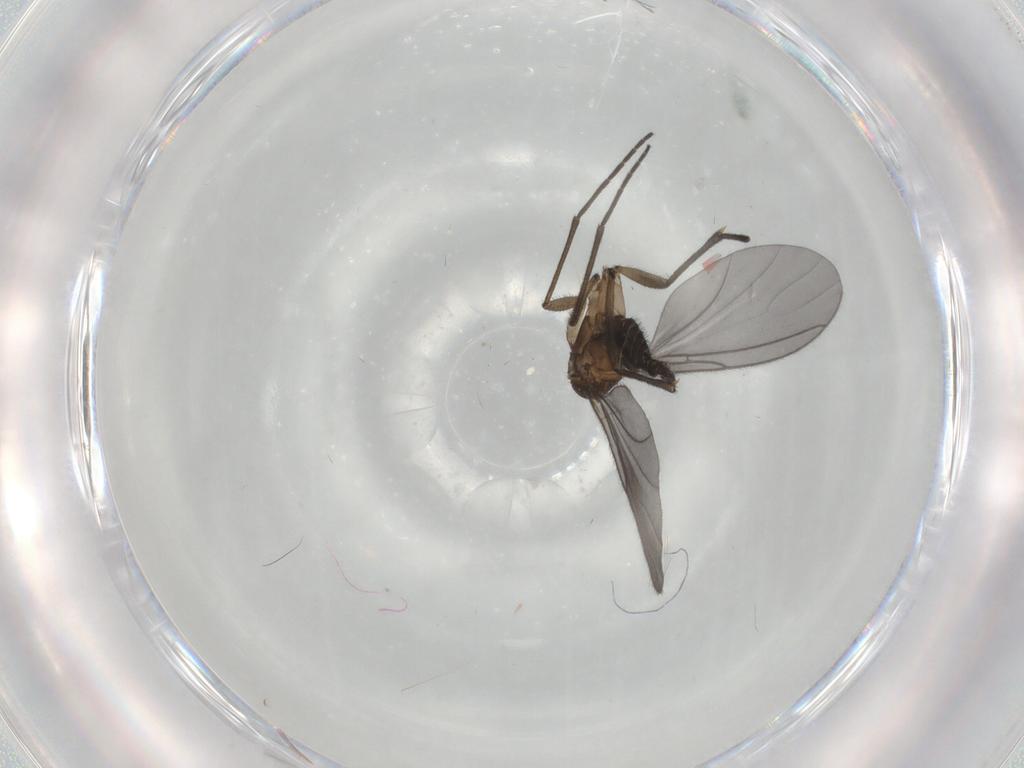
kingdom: Animalia
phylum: Arthropoda
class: Insecta
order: Diptera
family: Sciaridae
